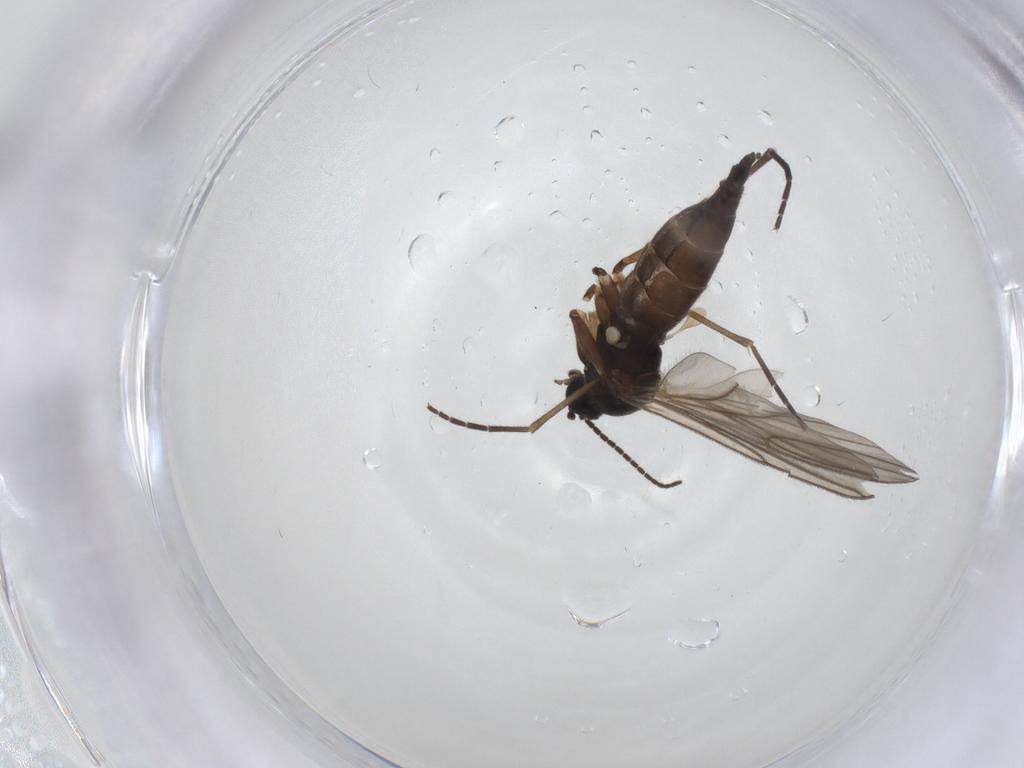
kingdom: Animalia
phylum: Arthropoda
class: Insecta
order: Diptera
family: Sciaridae
